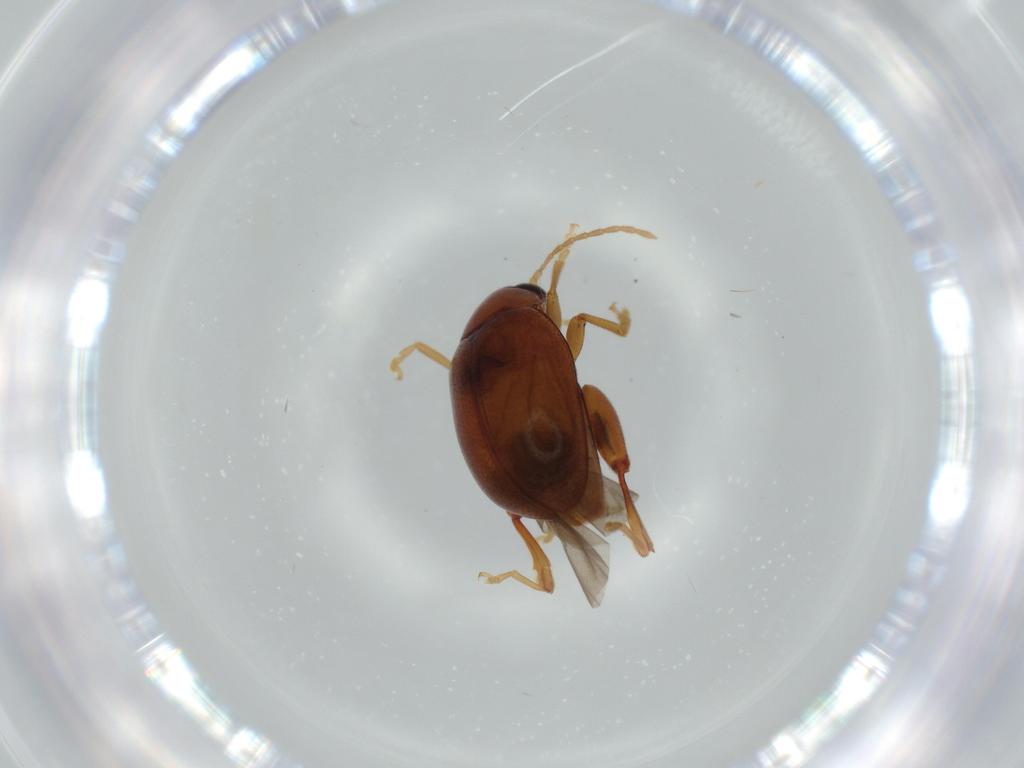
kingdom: Animalia
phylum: Arthropoda
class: Insecta
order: Coleoptera
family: Chrysomelidae
